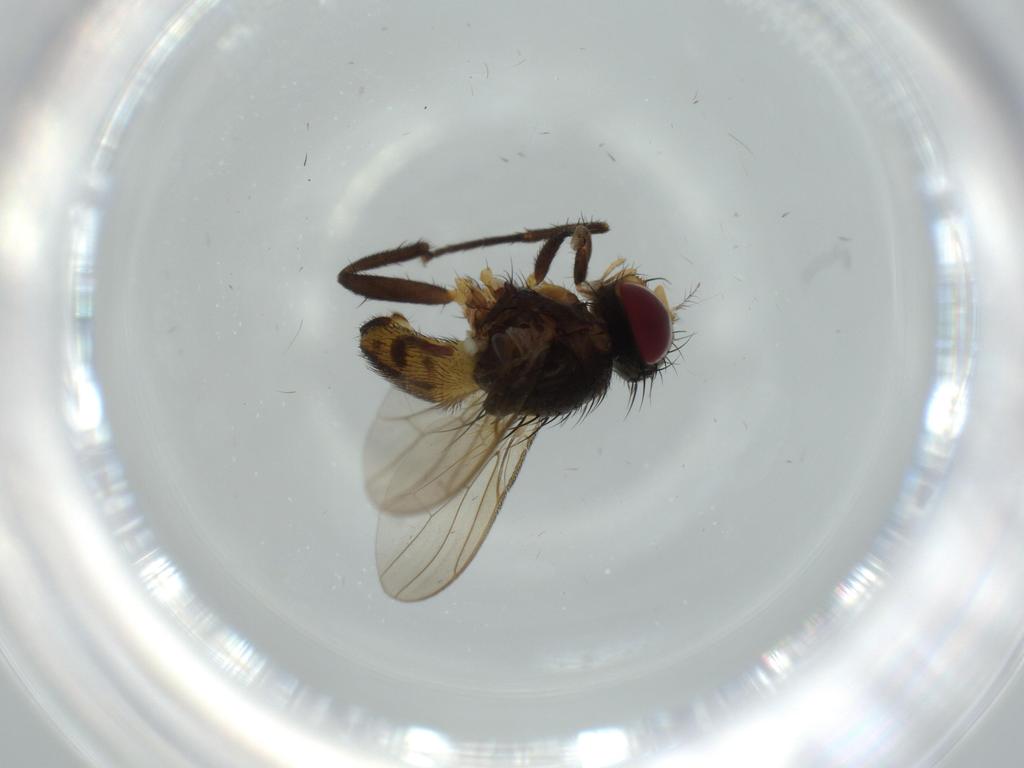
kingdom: Animalia
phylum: Arthropoda
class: Insecta
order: Diptera
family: Anthomyiidae
